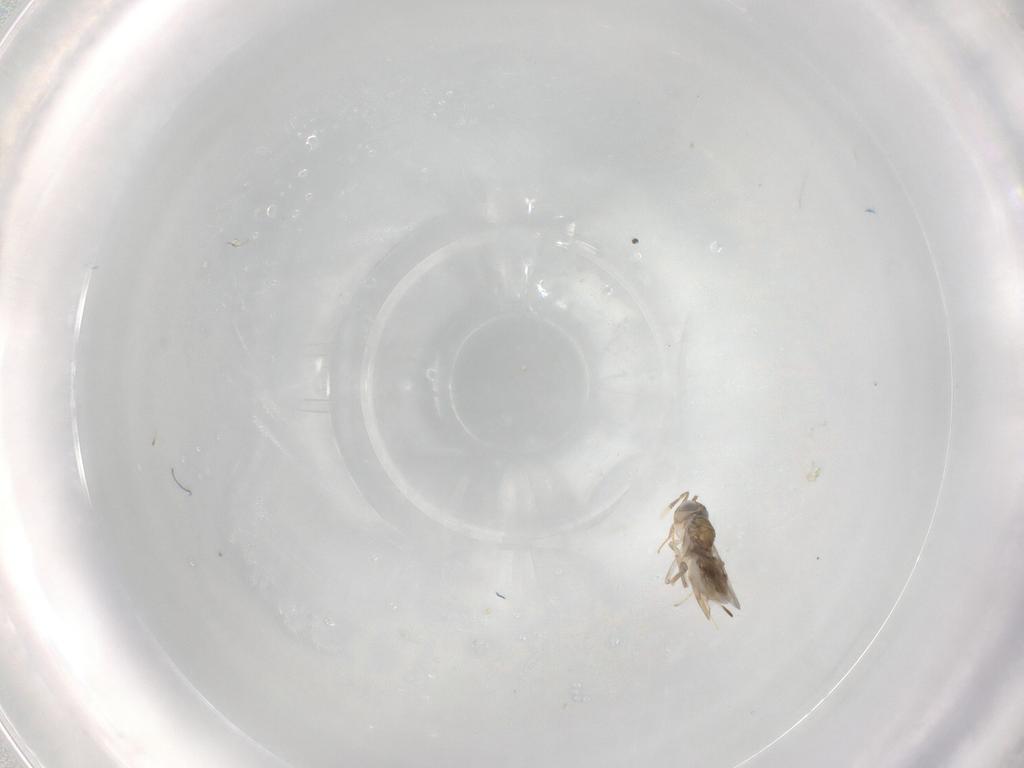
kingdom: Animalia
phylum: Arthropoda
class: Insecta
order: Hymenoptera
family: Encyrtidae
